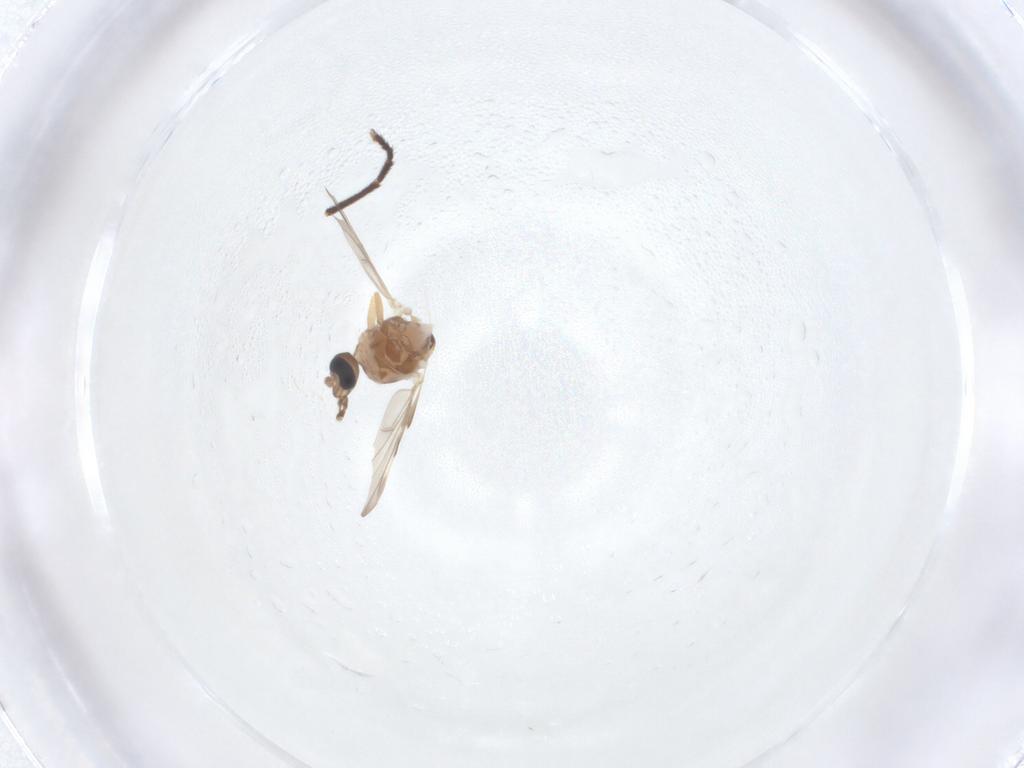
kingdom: Animalia
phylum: Arthropoda
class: Insecta
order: Diptera
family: Micropezidae
